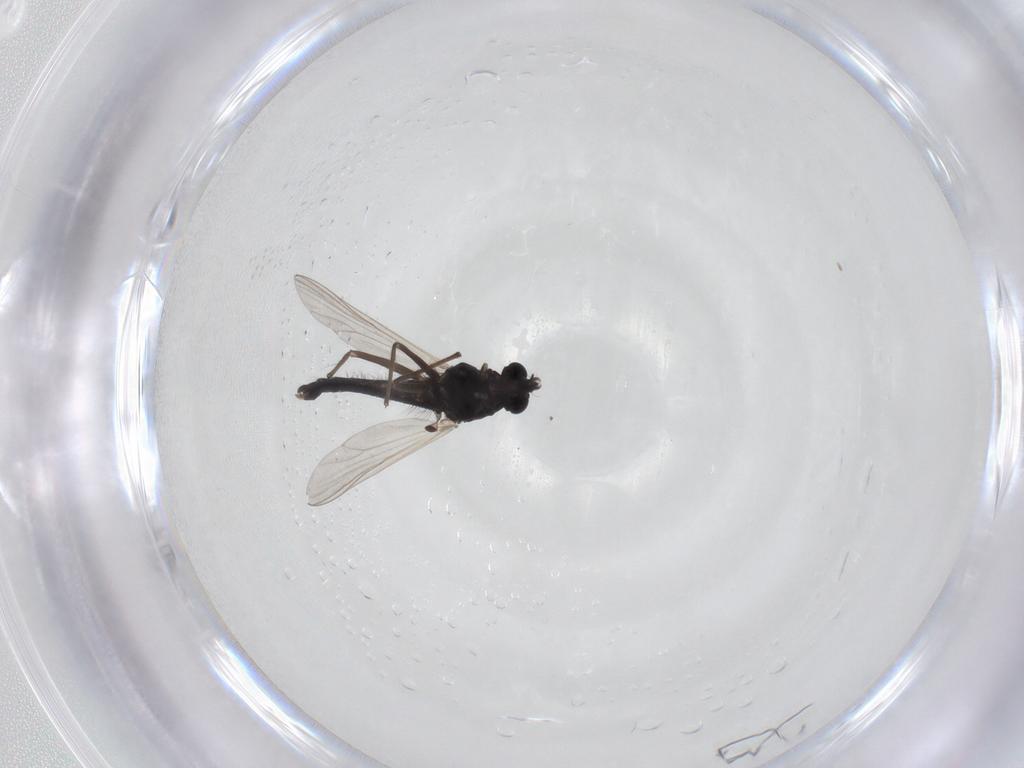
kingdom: Animalia
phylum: Arthropoda
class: Insecta
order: Diptera
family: Chironomidae
